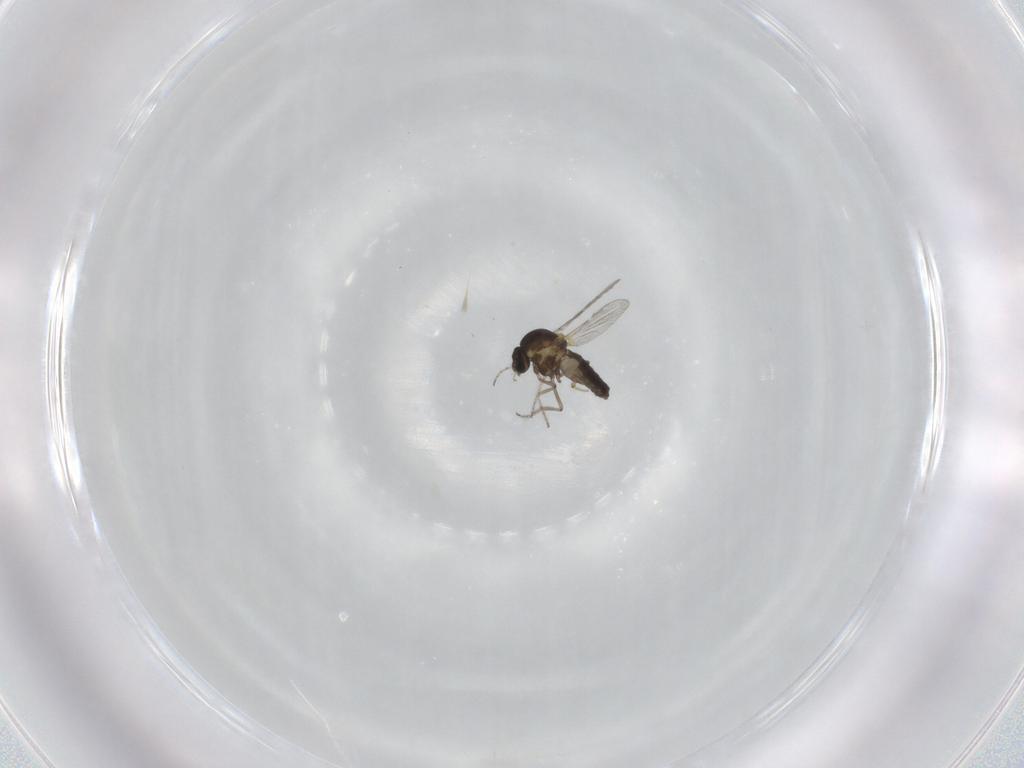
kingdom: Animalia
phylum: Arthropoda
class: Insecta
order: Diptera
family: Ceratopogonidae
